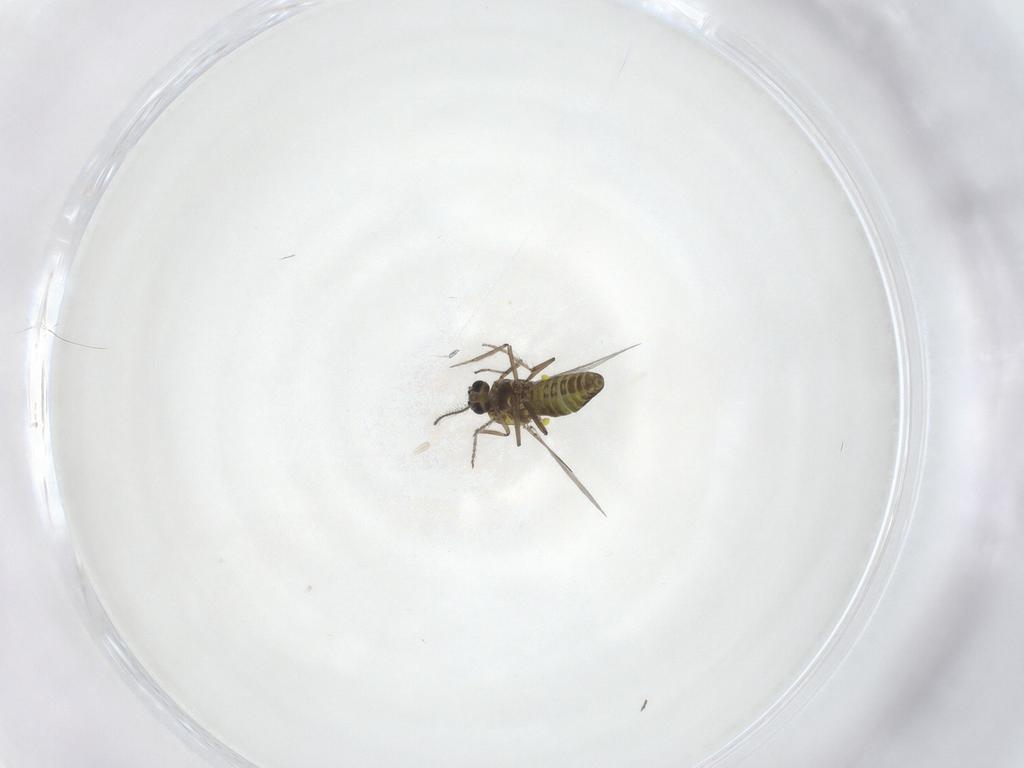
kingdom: Animalia
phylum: Arthropoda
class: Insecta
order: Diptera
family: Ceratopogonidae
